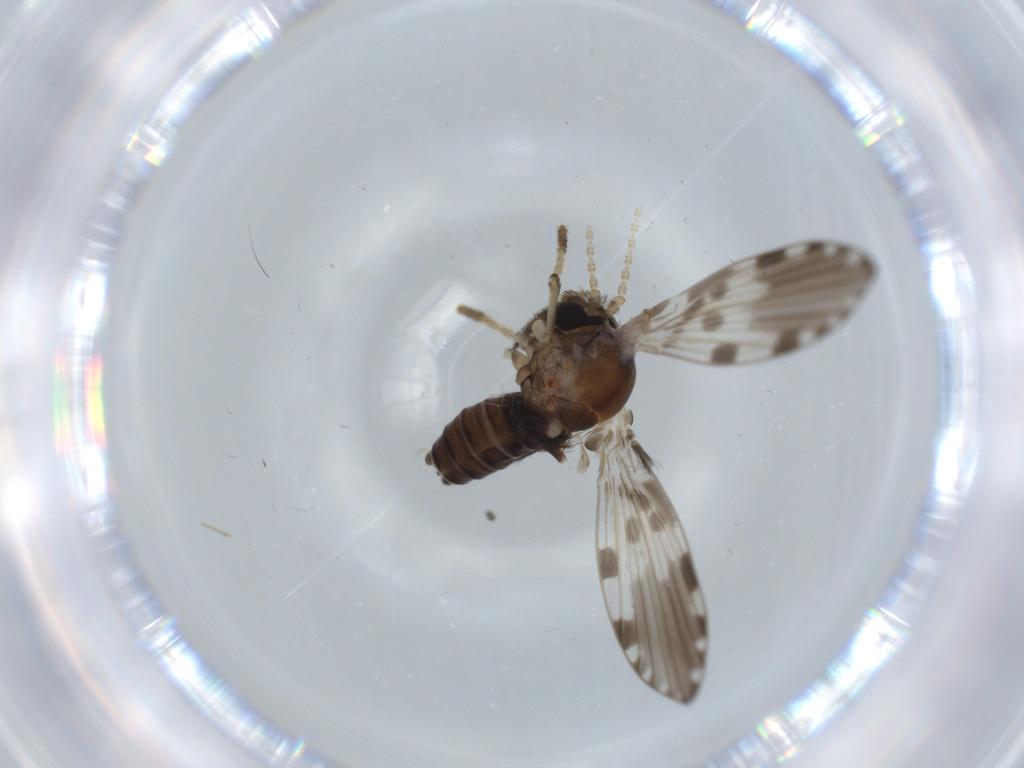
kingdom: Animalia
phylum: Arthropoda
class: Insecta
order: Diptera
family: Psychodidae
